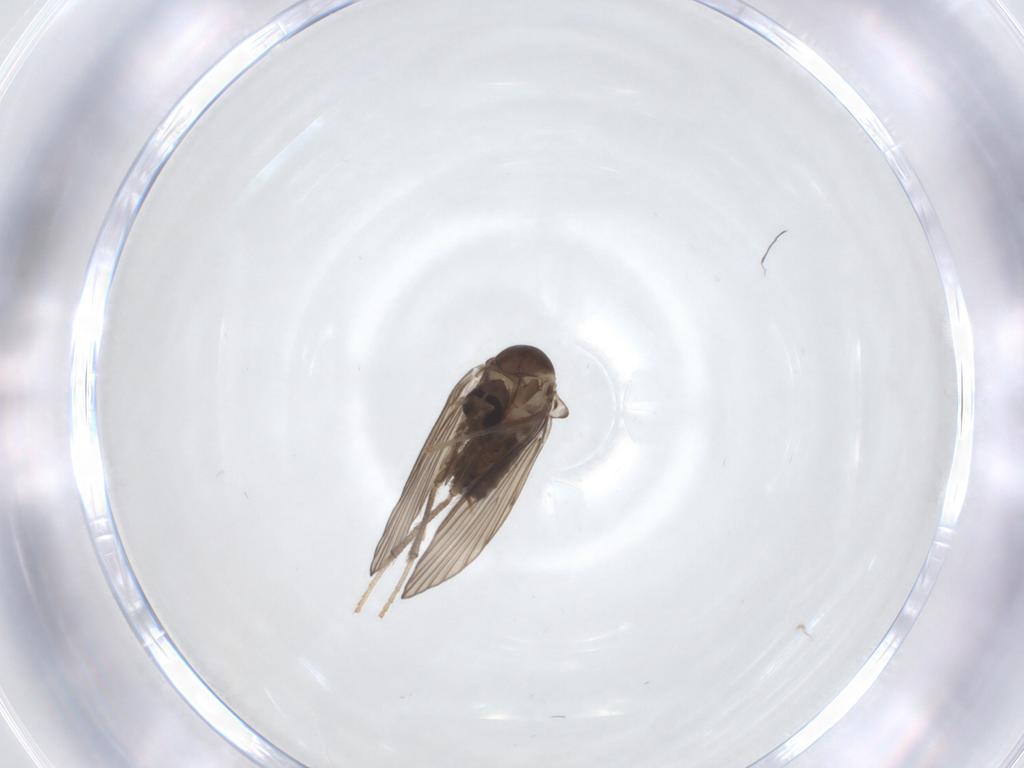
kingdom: Animalia
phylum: Arthropoda
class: Insecta
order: Diptera
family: Psychodidae
